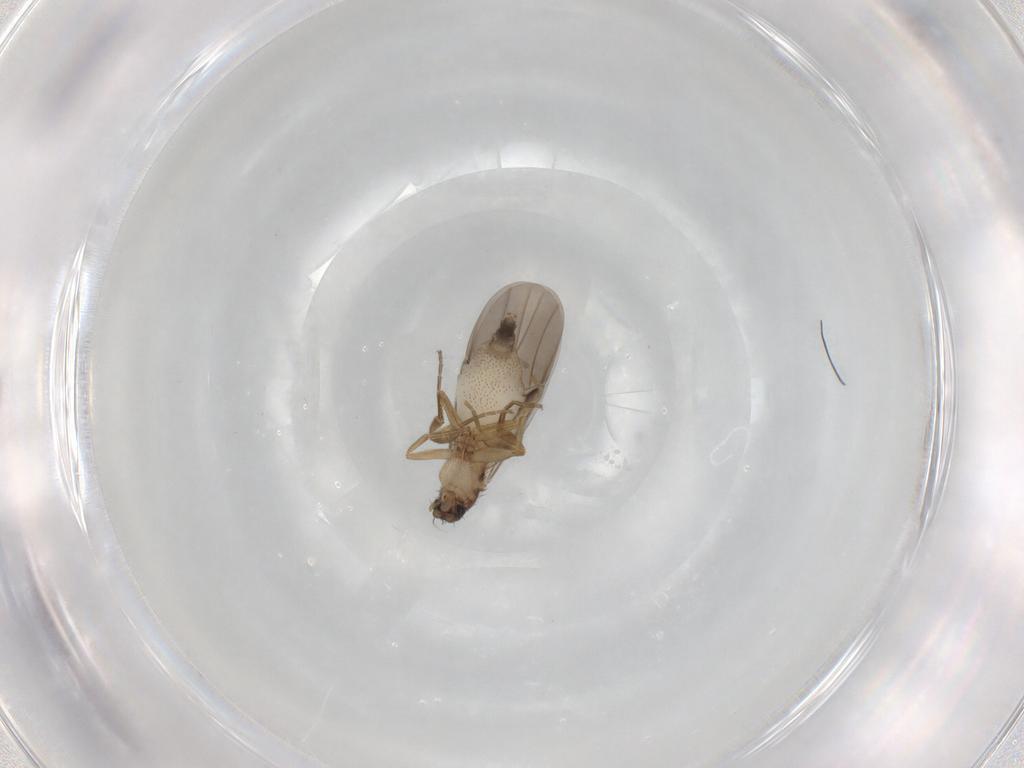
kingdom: Animalia
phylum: Arthropoda
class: Insecta
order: Diptera
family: Phoridae
